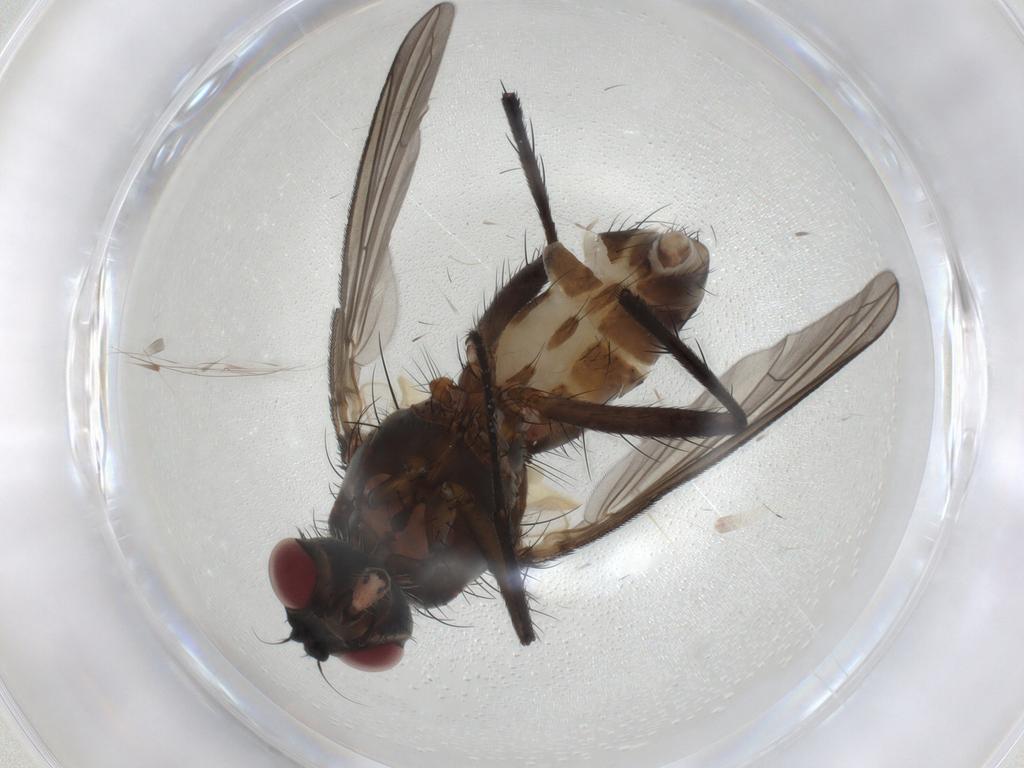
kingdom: Animalia
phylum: Arthropoda
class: Insecta
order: Diptera
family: Muscidae
